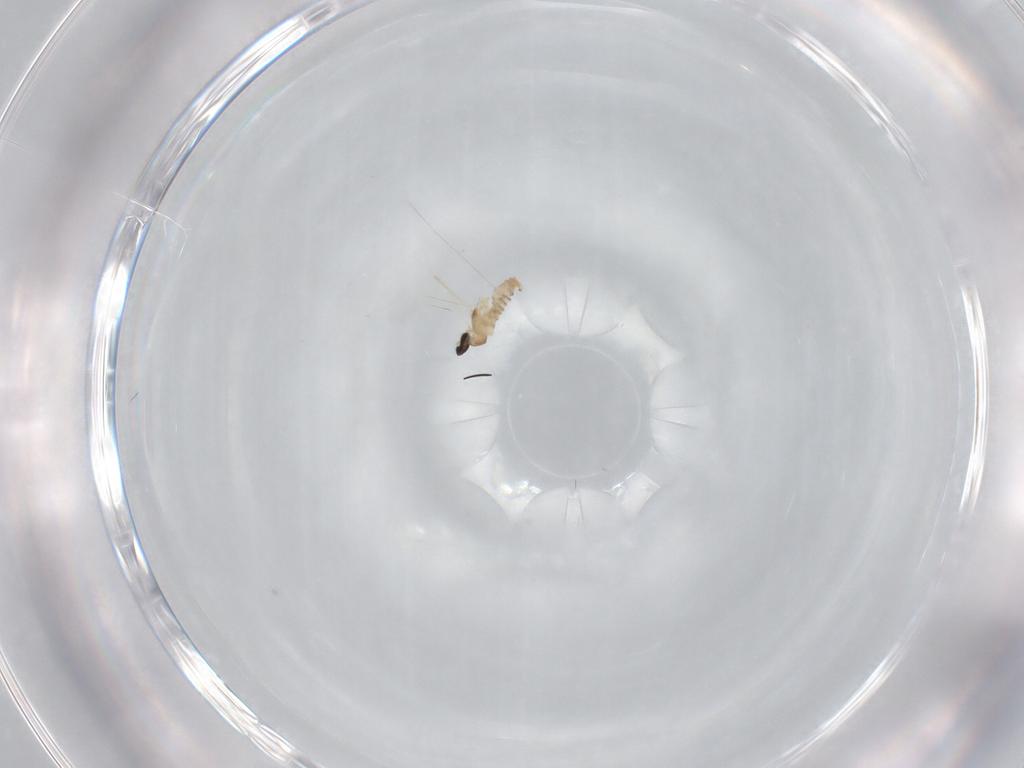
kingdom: Animalia
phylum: Arthropoda
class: Insecta
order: Diptera
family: Cecidomyiidae
